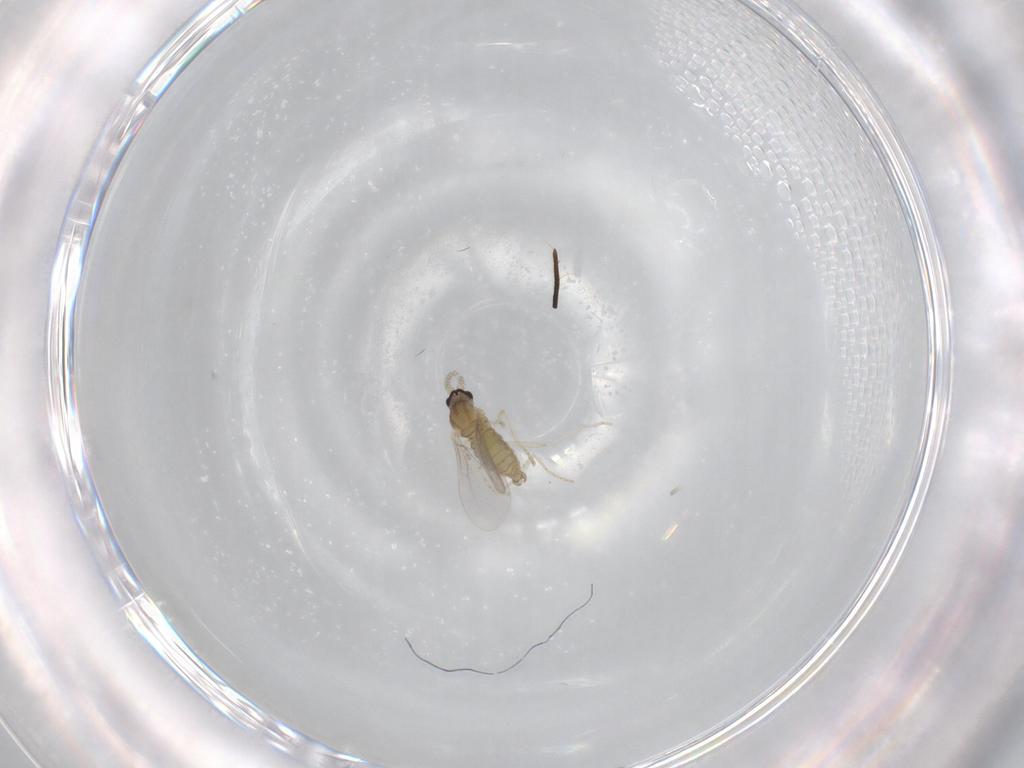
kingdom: Animalia
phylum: Arthropoda
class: Insecta
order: Diptera
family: Cecidomyiidae
